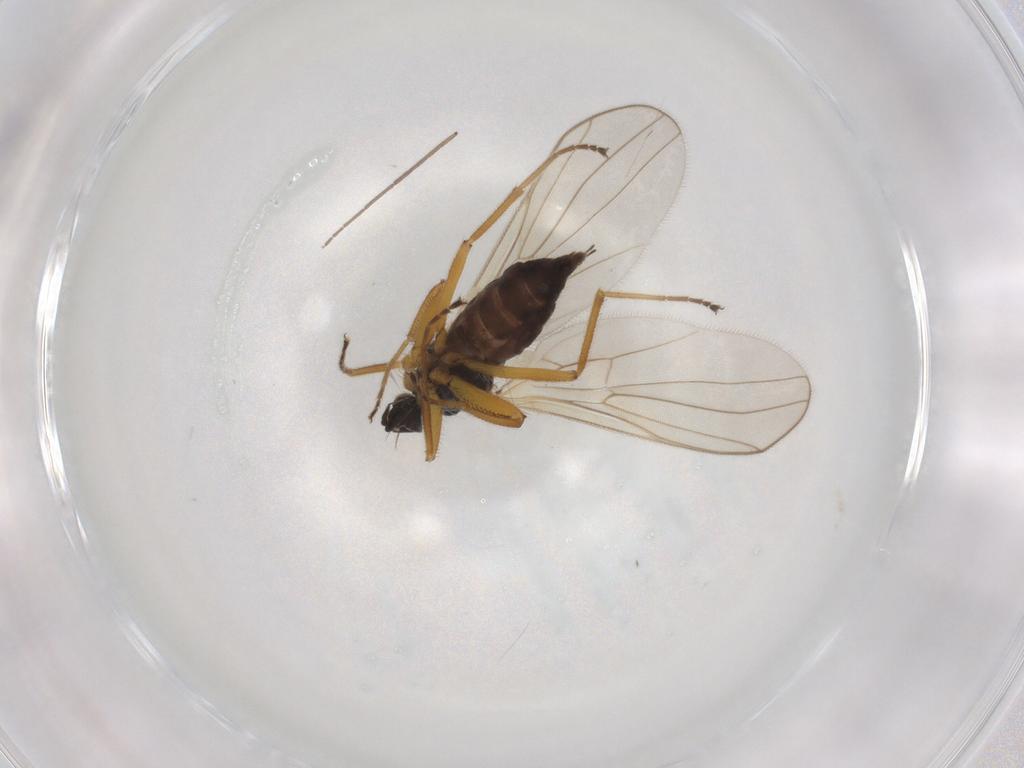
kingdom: Animalia
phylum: Arthropoda
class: Insecta
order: Diptera
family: Hybotidae
